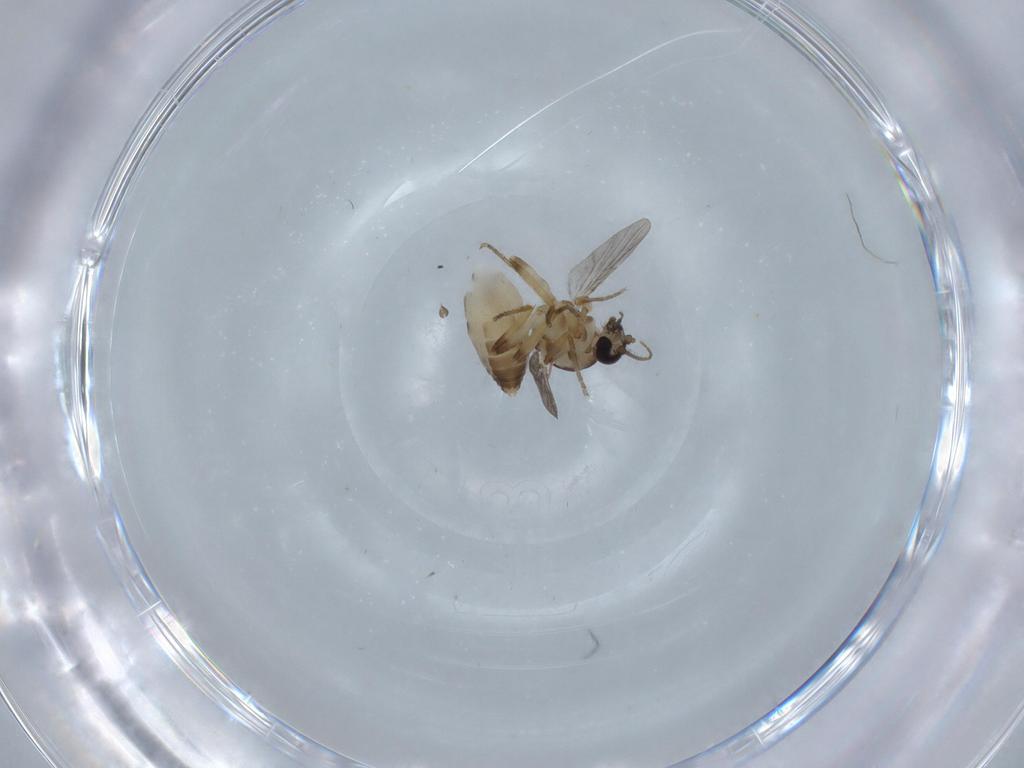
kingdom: Animalia
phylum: Arthropoda
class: Insecta
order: Diptera
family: Ceratopogonidae
